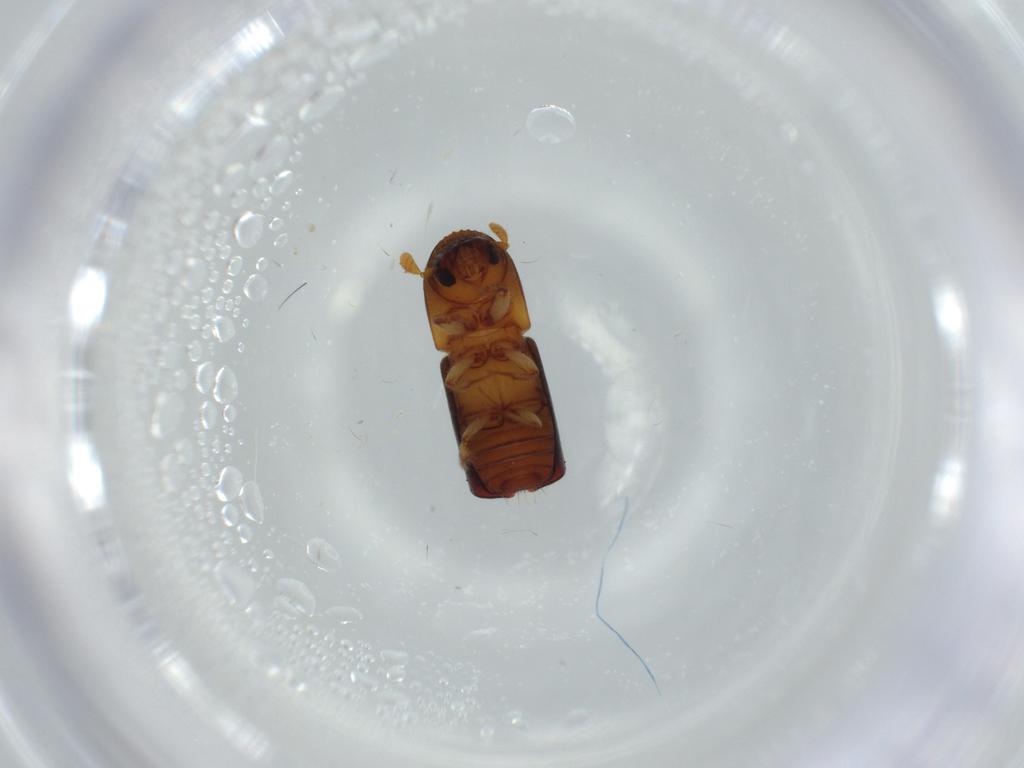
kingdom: Animalia
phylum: Arthropoda
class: Insecta
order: Coleoptera
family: Curculionidae
